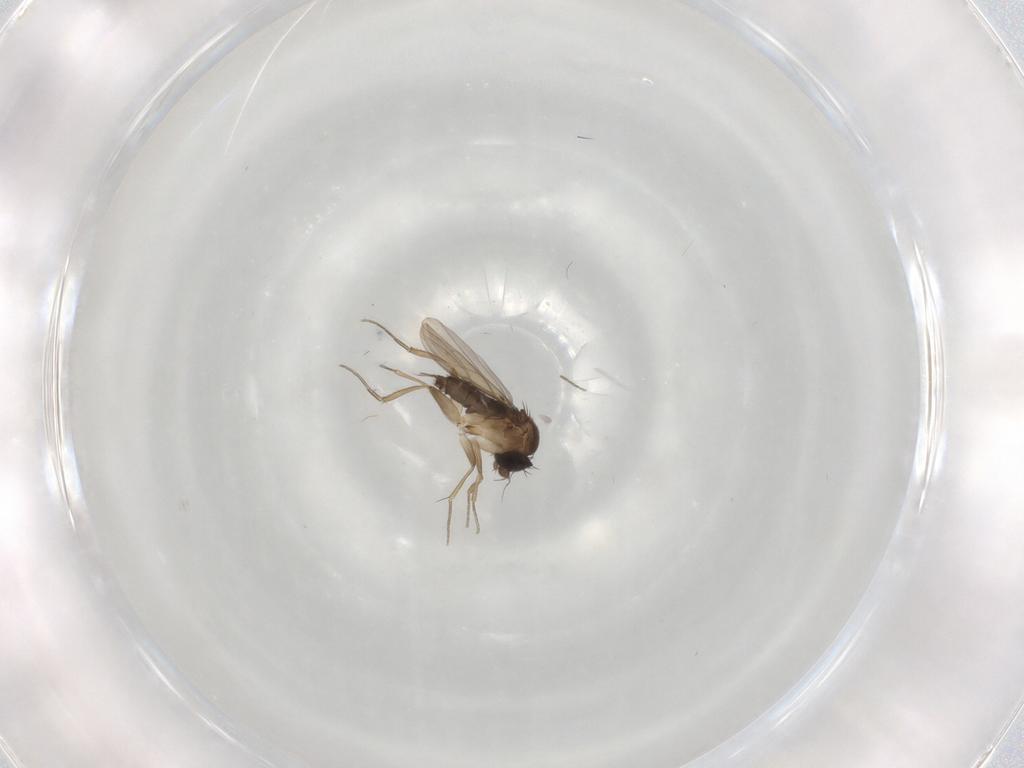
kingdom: Animalia
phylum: Arthropoda
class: Insecta
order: Diptera
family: Phoridae
